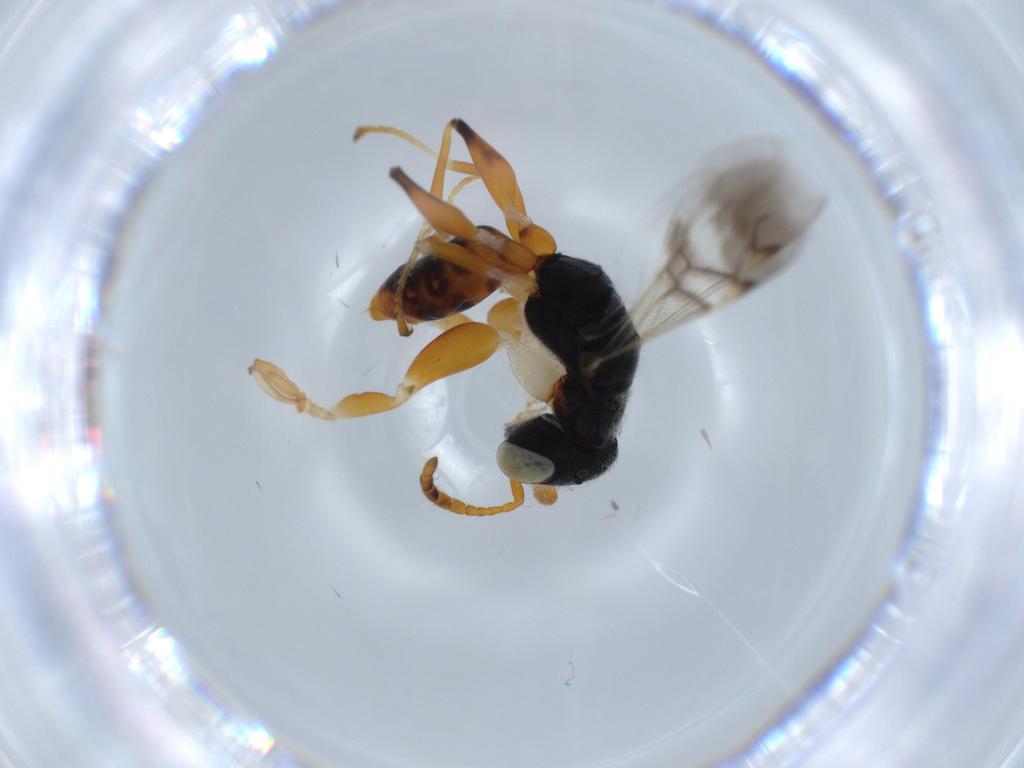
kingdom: Animalia
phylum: Arthropoda
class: Insecta
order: Hymenoptera
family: Dryinidae
